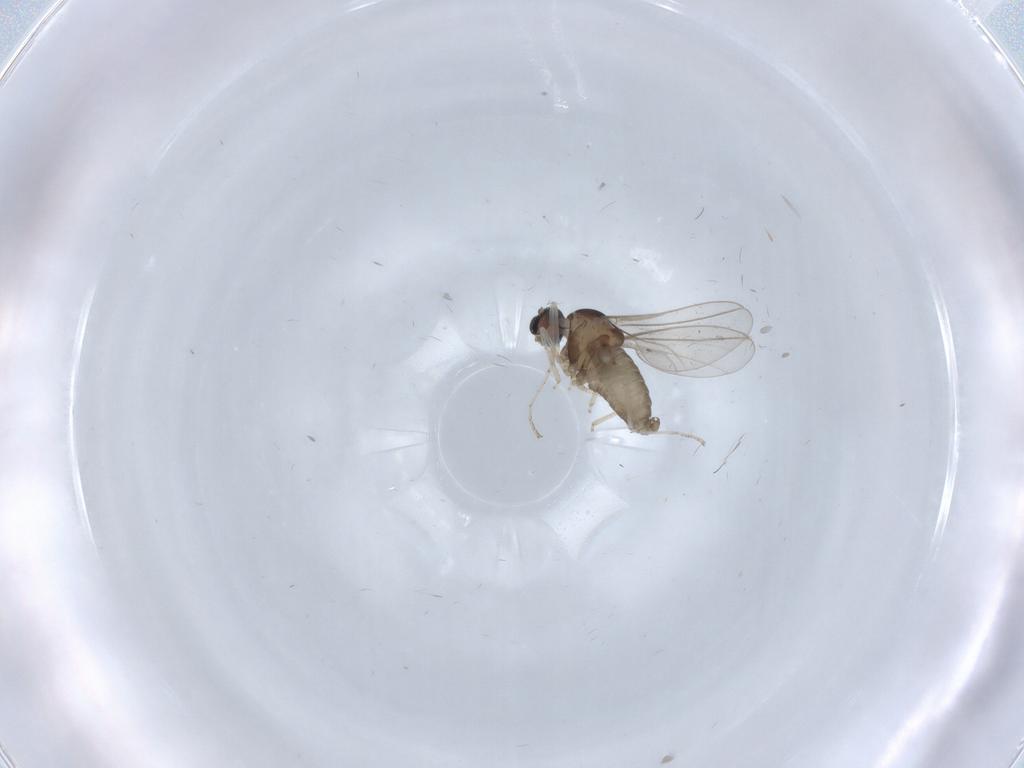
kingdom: Animalia
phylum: Arthropoda
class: Insecta
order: Diptera
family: Cecidomyiidae
